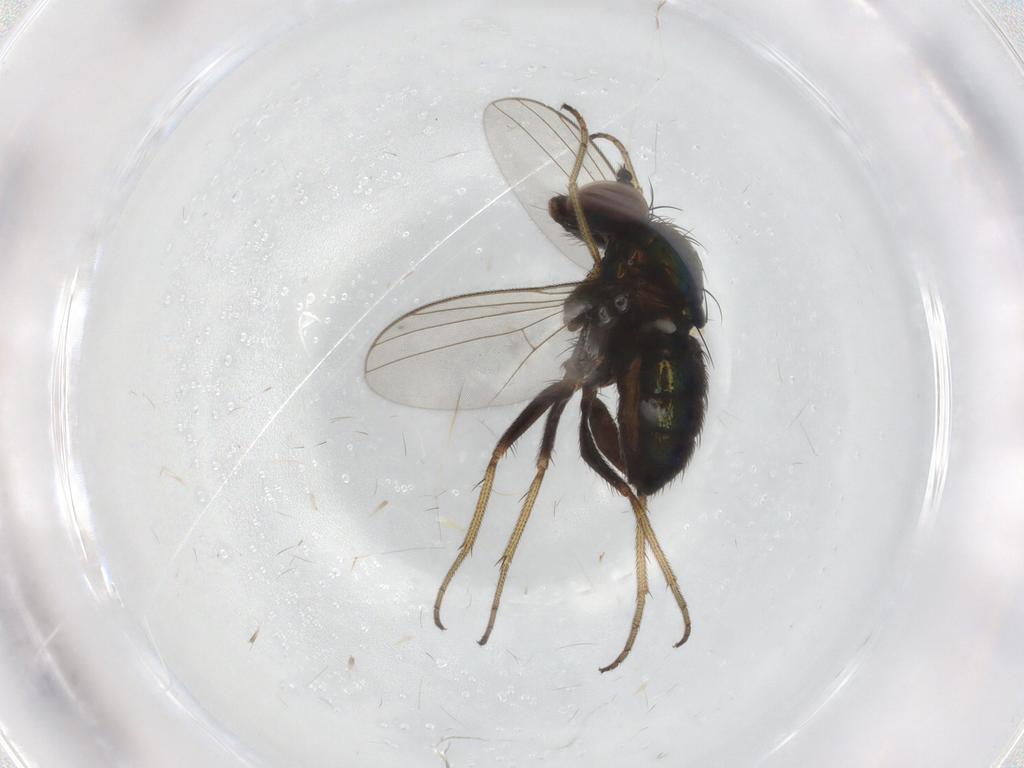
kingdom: Animalia
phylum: Arthropoda
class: Insecta
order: Diptera
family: Dolichopodidae
